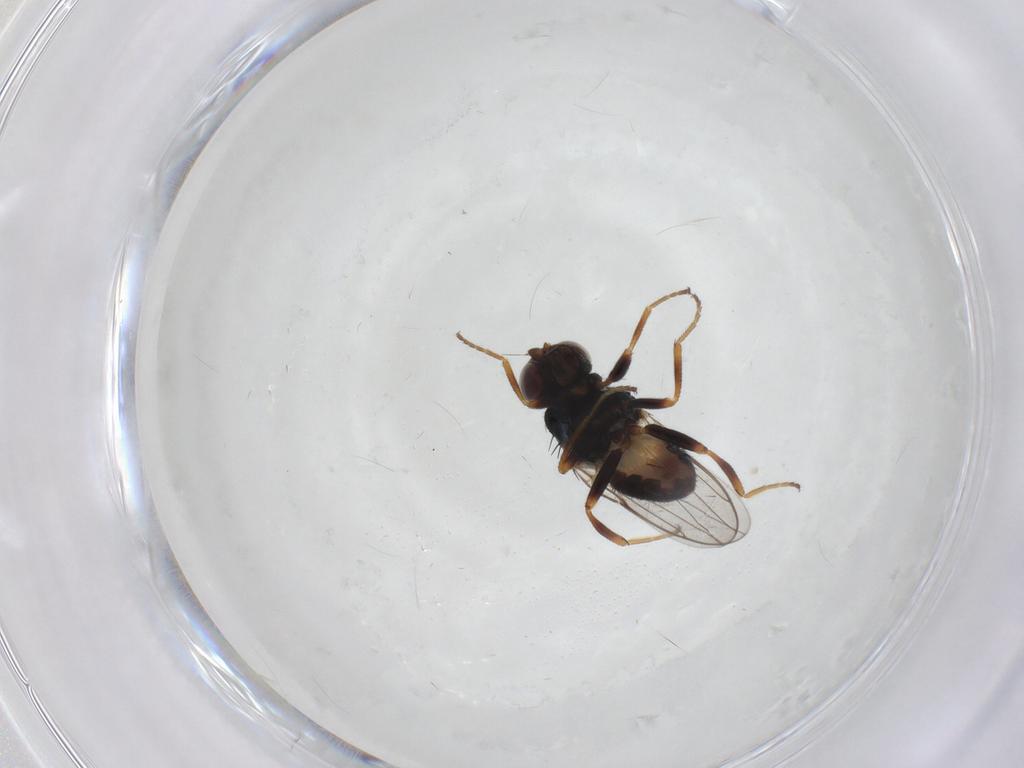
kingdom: Animalia
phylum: Arthropoda
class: Insecta
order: Diptera
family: Chloropidae
